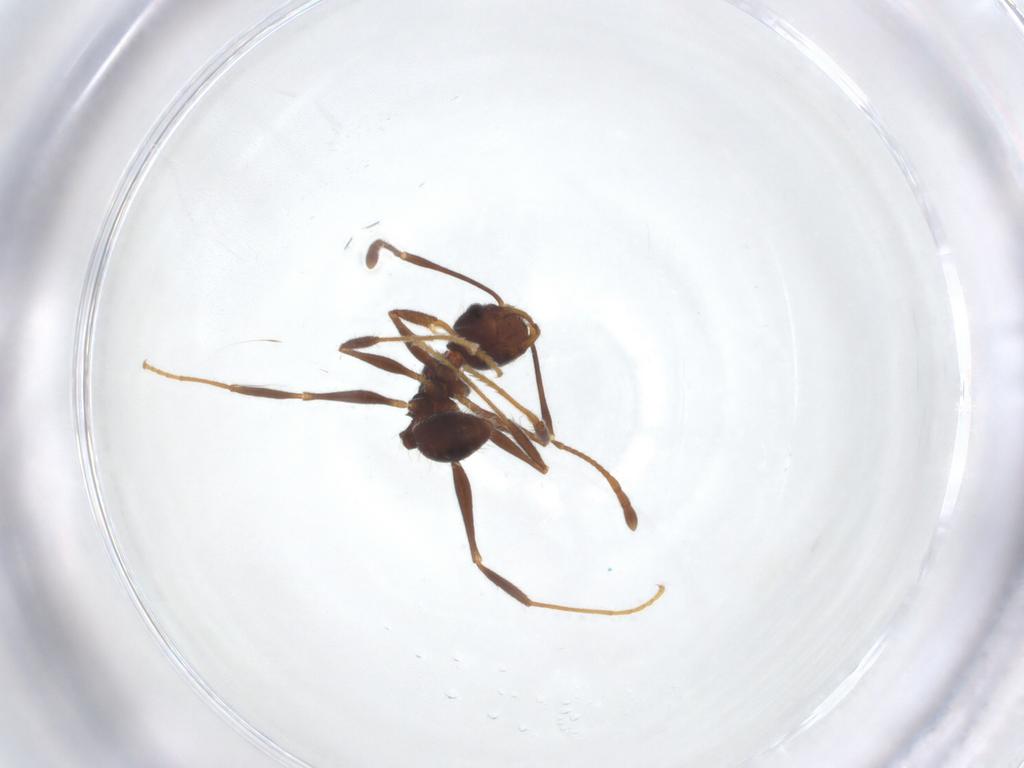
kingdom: Animalia
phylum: Arthropoda
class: Insecta
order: Hymenoptera
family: Formicidae
